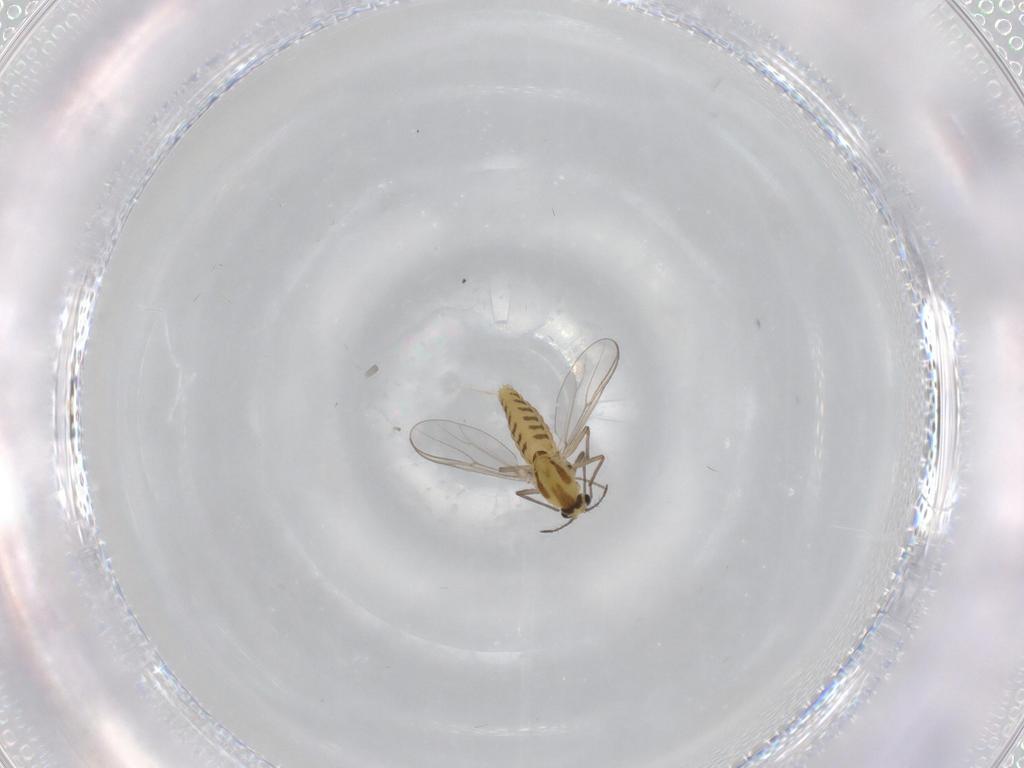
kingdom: Animalia
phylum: Arthropoda
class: Insecta
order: Diptera
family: Chironomidae
